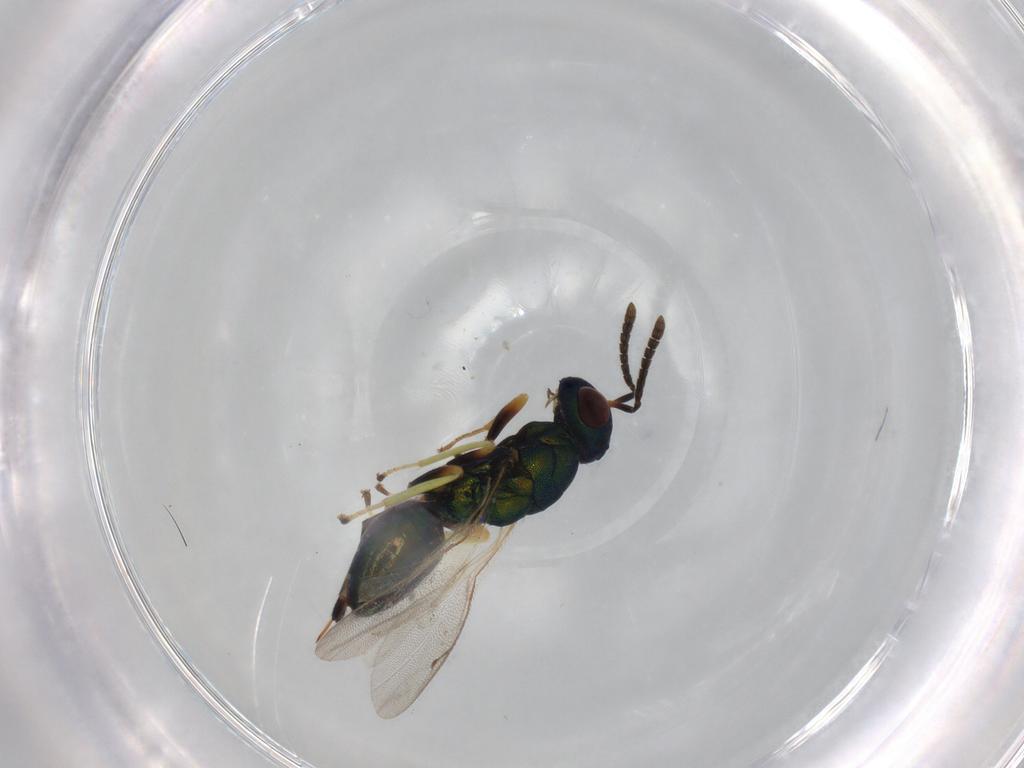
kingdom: Animalia
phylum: Arthropoda
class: Insecta
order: Hymenoptera
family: Pteromalidae
